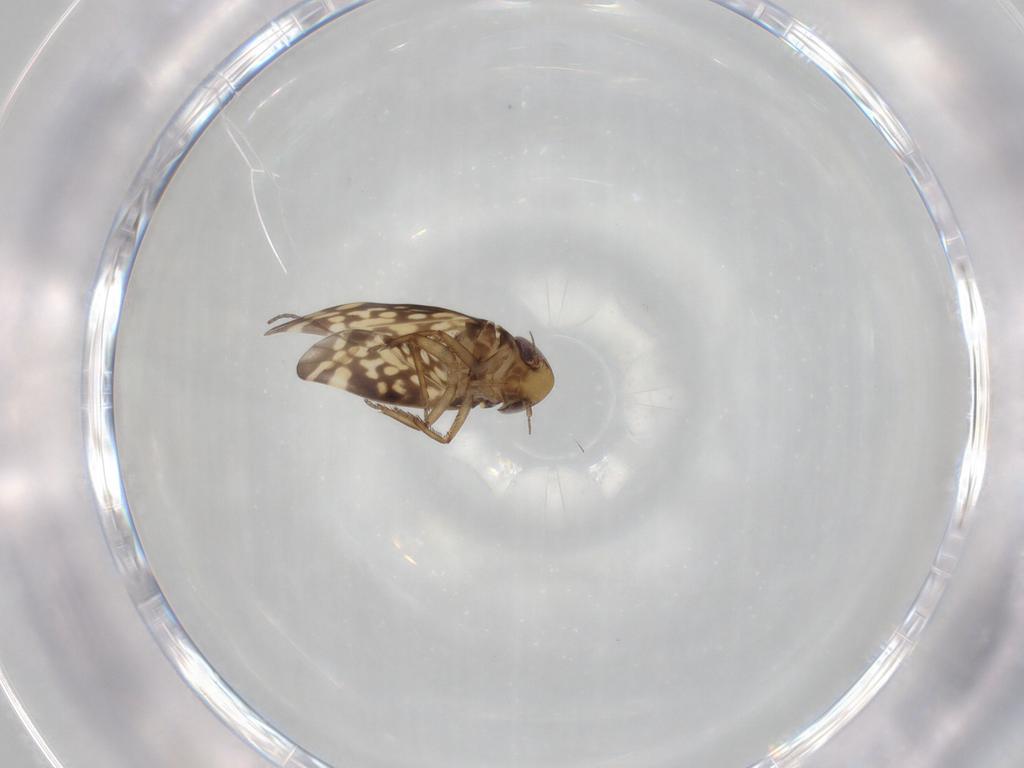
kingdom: Animalia
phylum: Arthropoda
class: Insecta
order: Hemiptera
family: Cicadellidae
